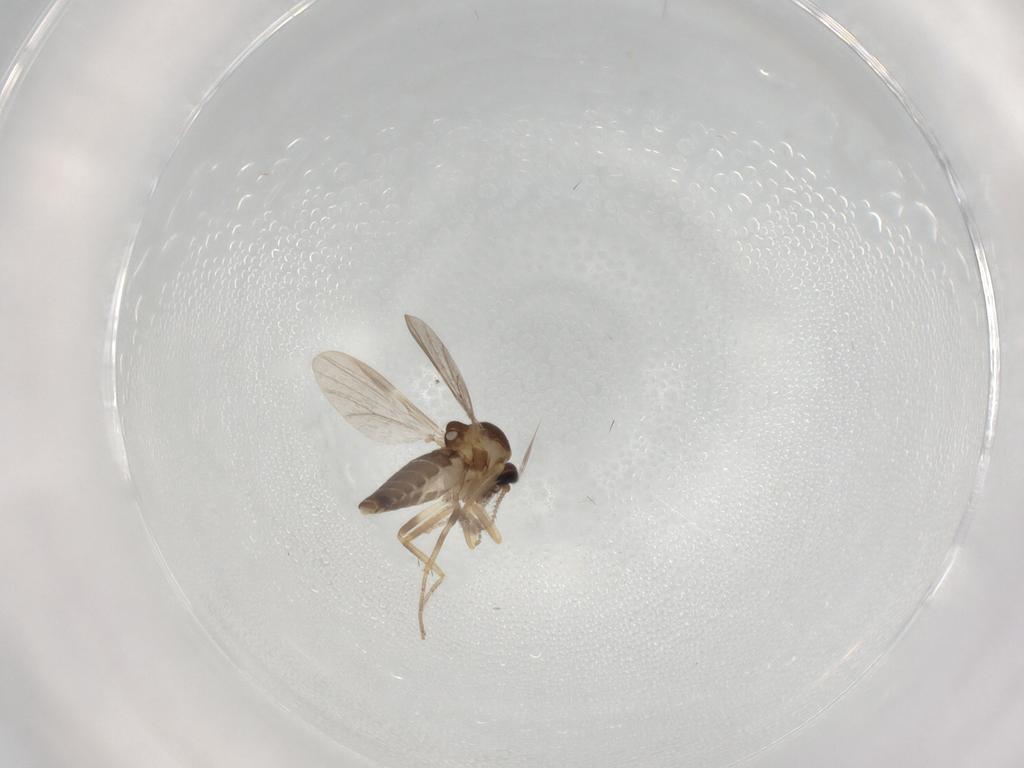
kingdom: Animalia
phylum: Arthropoda
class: Insecta
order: Diptera
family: Ceratopogonidae
